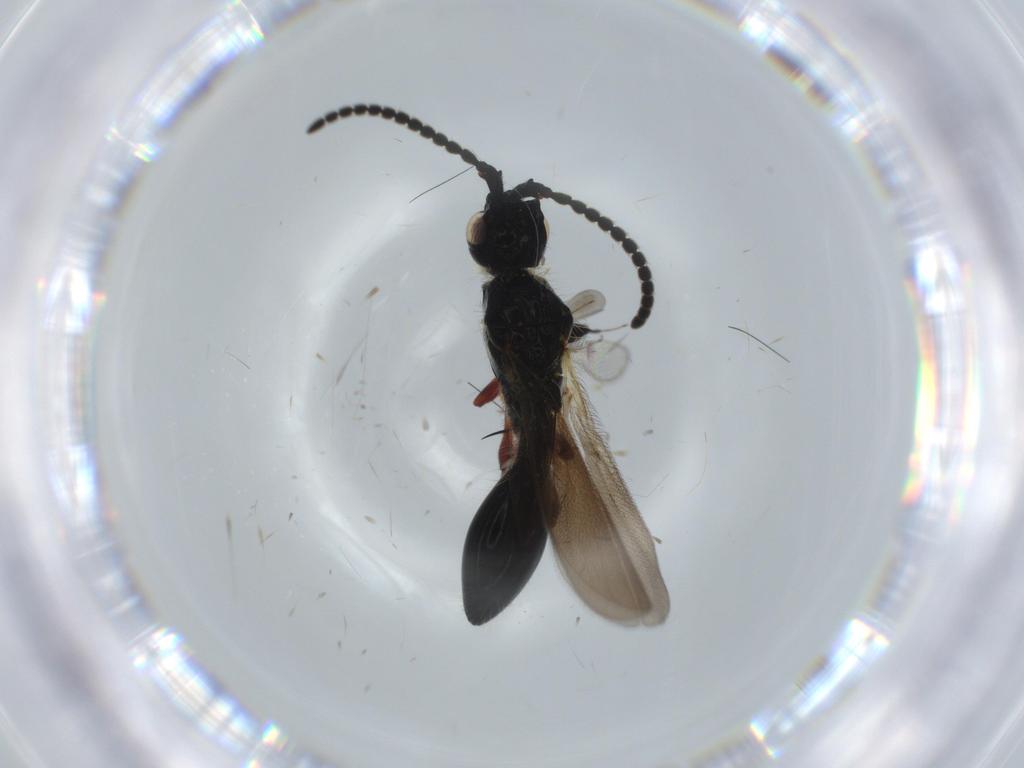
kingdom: Animalia
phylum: Arthropoda
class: Insecta
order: Hymenoptera
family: Diapriidae
